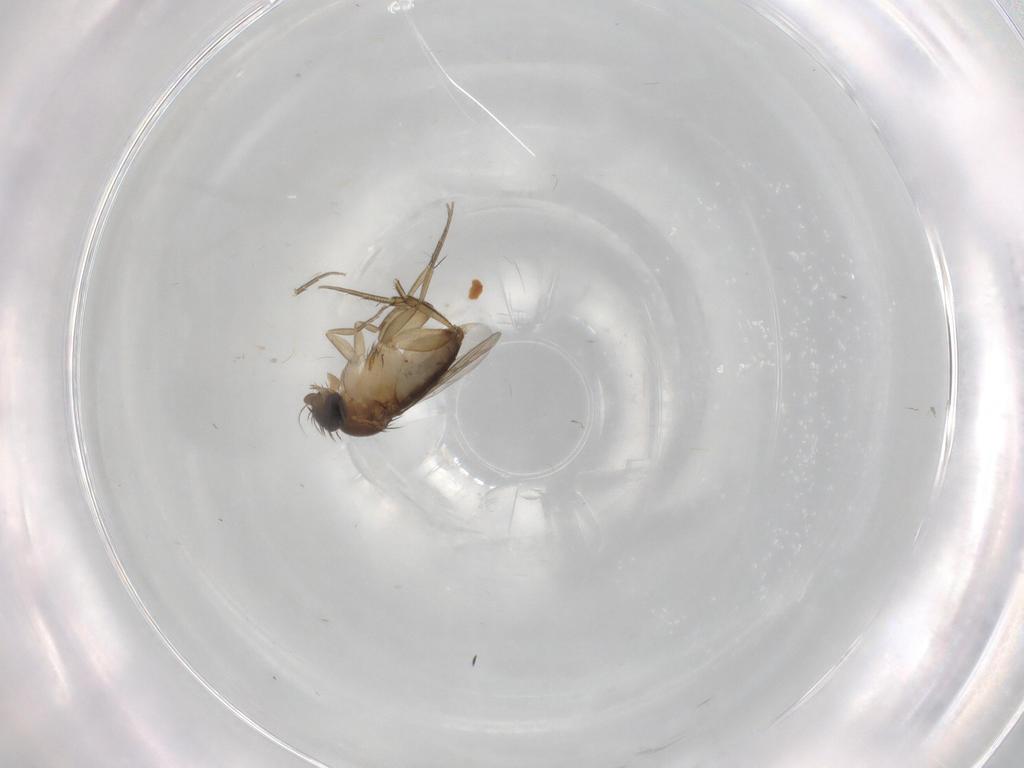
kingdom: Animalia
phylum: Arthropoda
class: Insecta
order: Diptera
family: Phoridae
